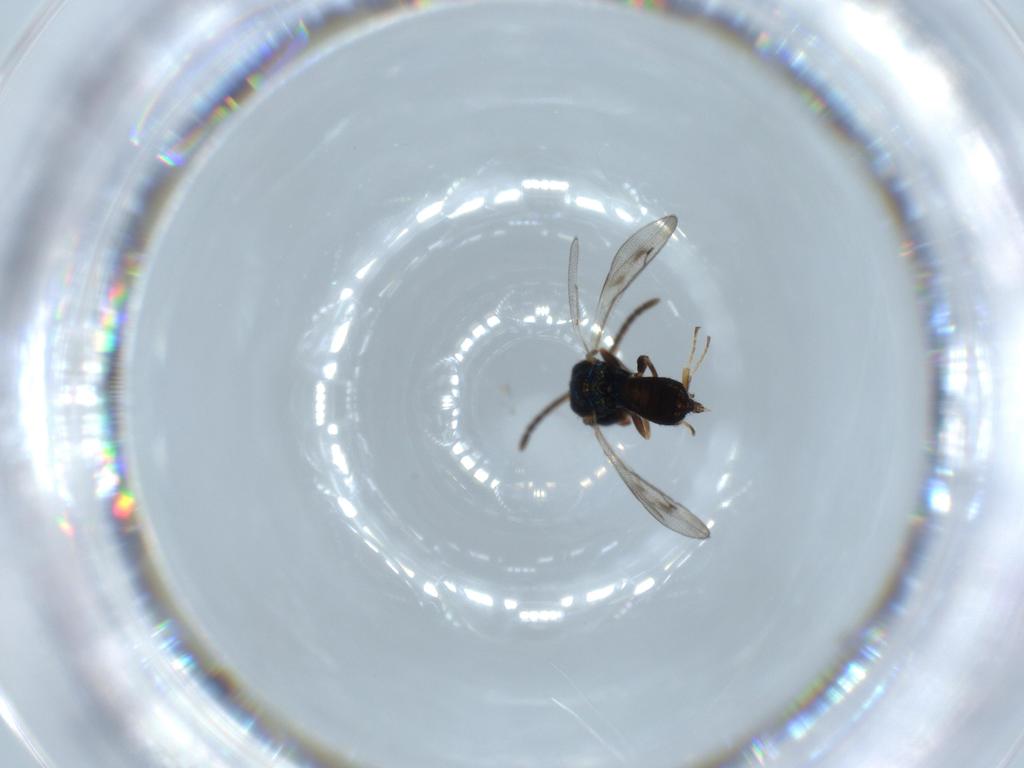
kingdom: Animalia
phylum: Arthropoda
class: Insecta
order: Hymenoptera
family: Pteromalidae
